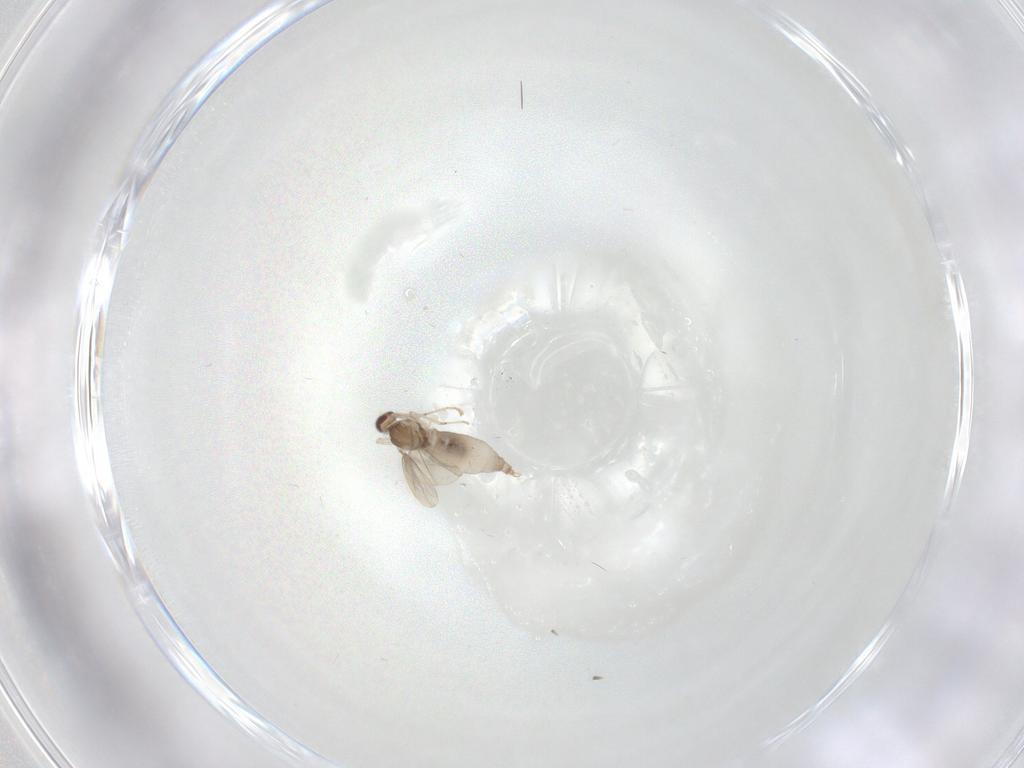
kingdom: Animalia
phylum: Arthropoda
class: Insecta
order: Diptera
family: Cecidomyiidae
